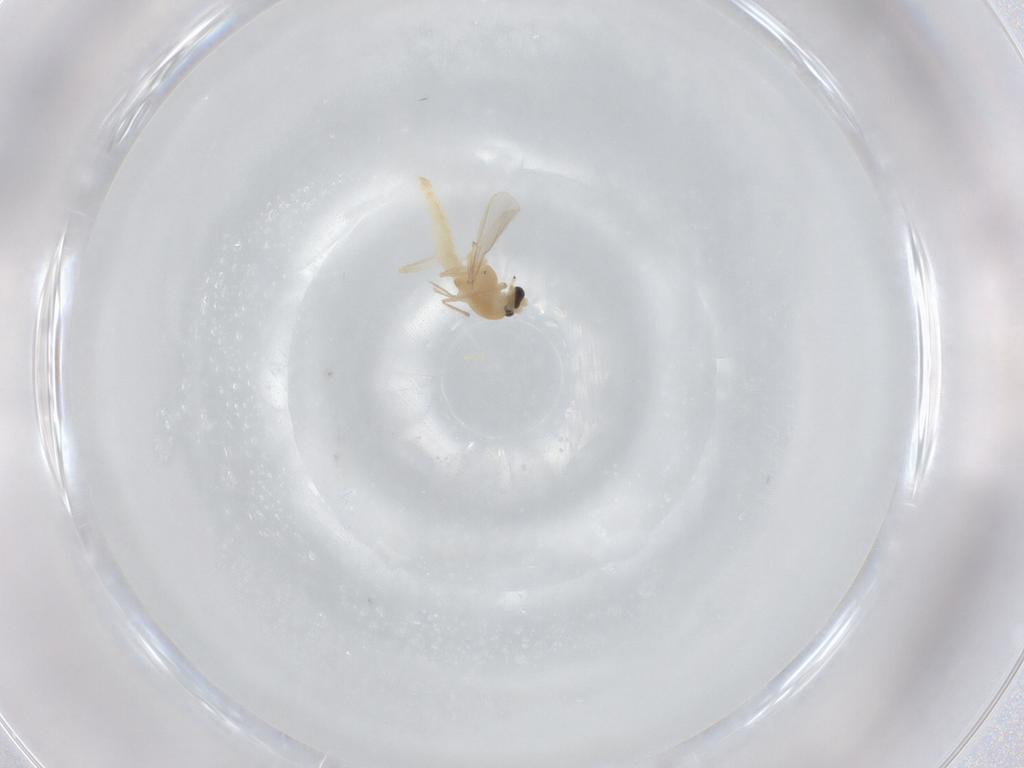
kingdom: Animalia
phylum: Arthropoda
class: Insecta
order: Diptera
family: Chironomidae
